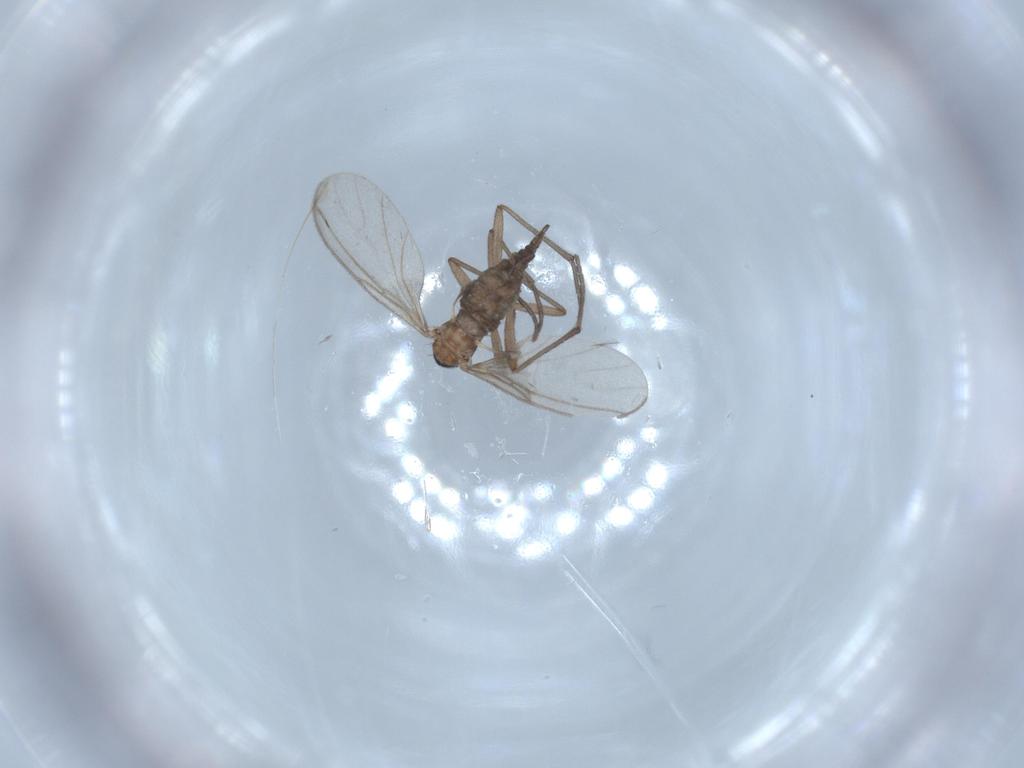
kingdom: Animalia
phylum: Arthropoda
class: Insecta
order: Diptera
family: Sciaridae
